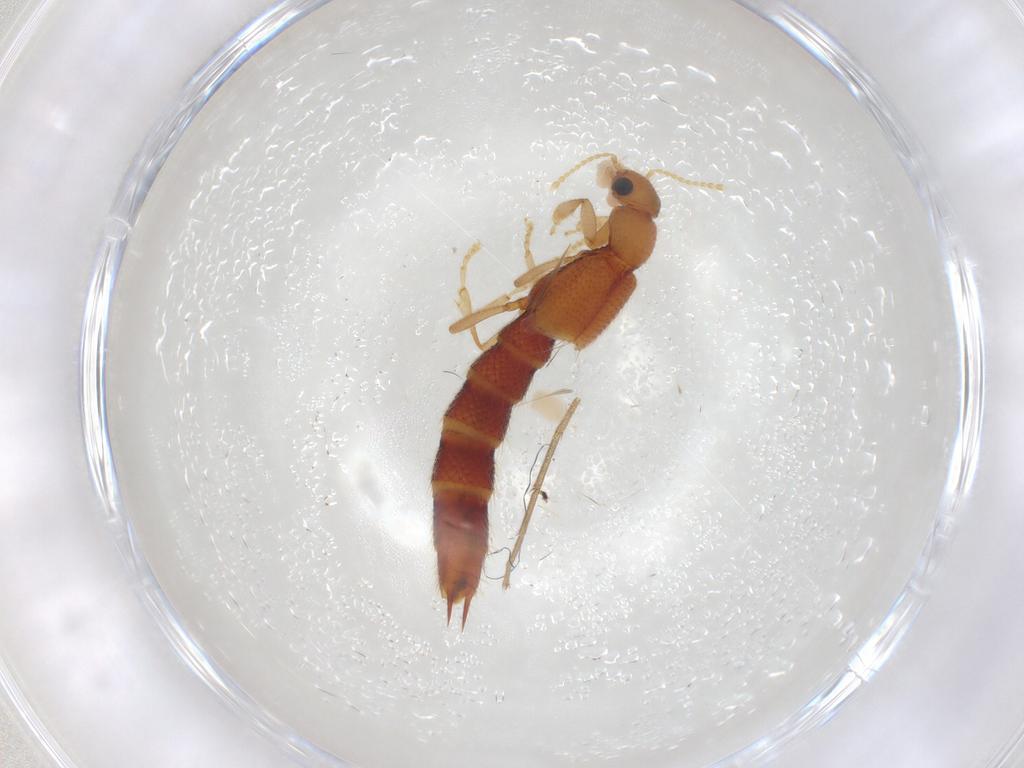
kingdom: Animalia
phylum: Arthropoda
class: Insecta
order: Coleoptera
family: Staphylinidae
